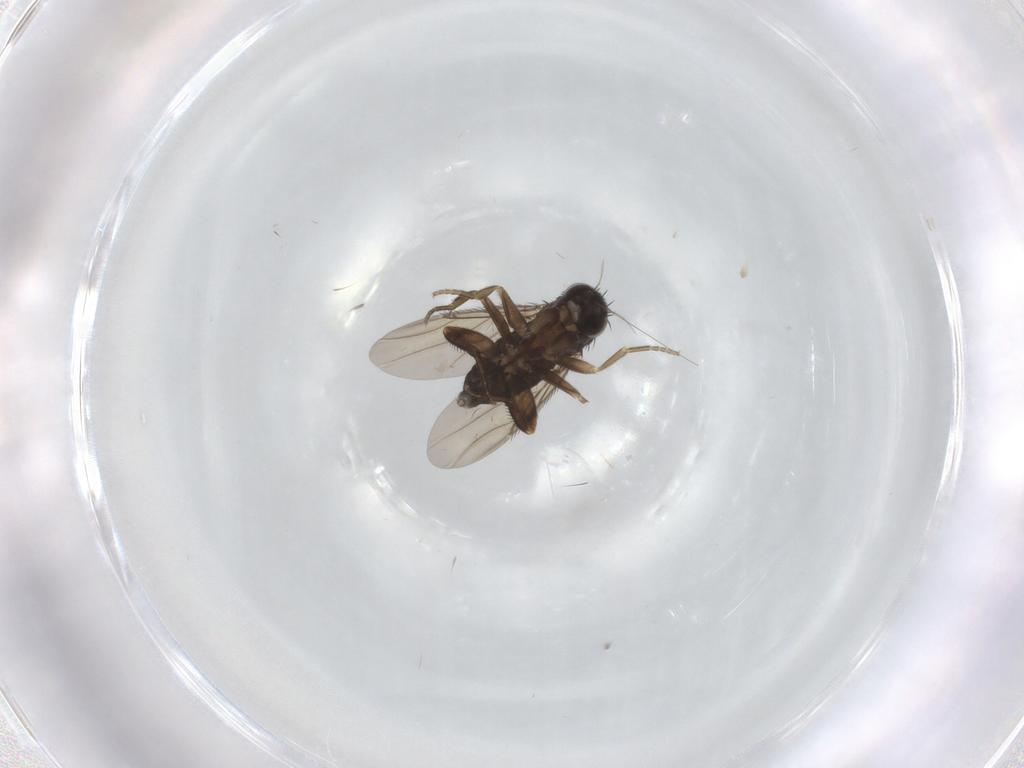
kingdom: Animalia
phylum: Arthropoda
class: Insecta
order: Diptera
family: Phoridae
